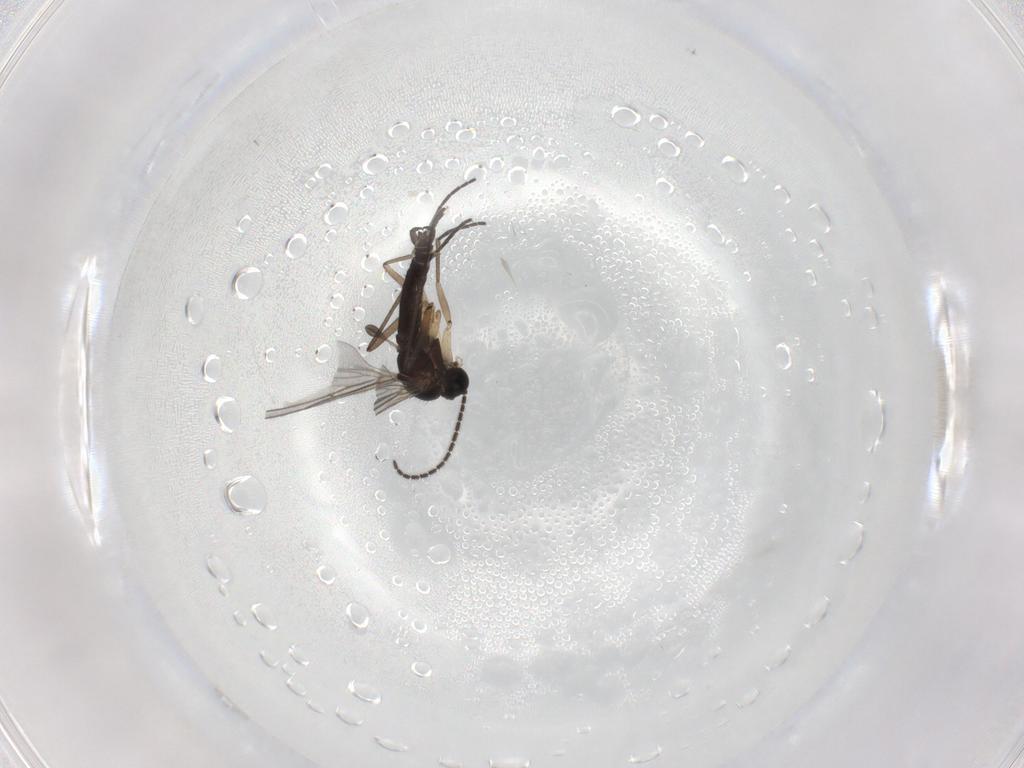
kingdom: Animalia
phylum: Arthropoda
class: Insecta
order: Diptera
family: Sciaridae
